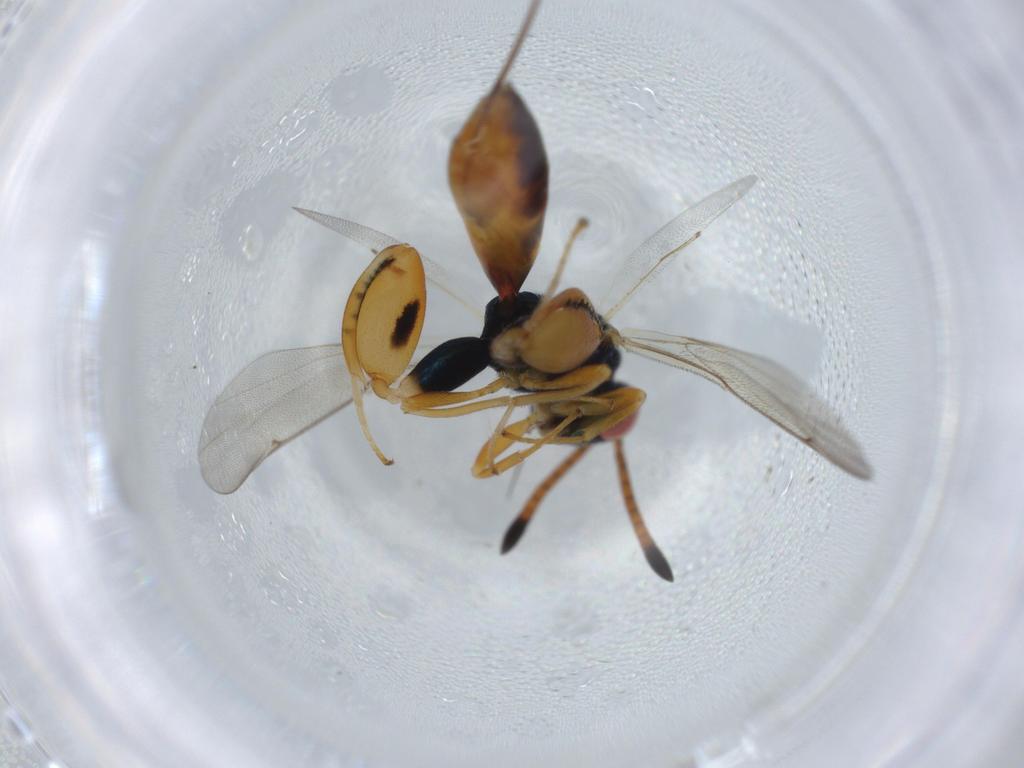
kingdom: Animalia
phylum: Arthropoda
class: Insecta
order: Hymenoptera
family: Torymidae
